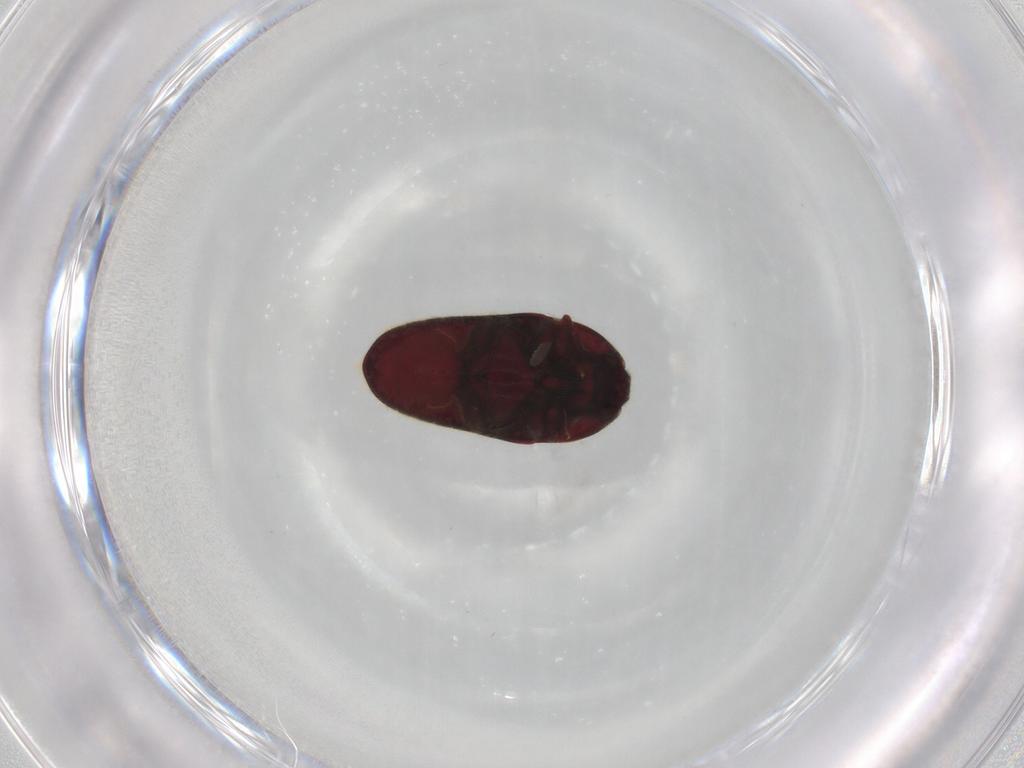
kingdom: Animalia
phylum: Arthropoda
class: Insecta
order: Coleoptera
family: Throscidae
